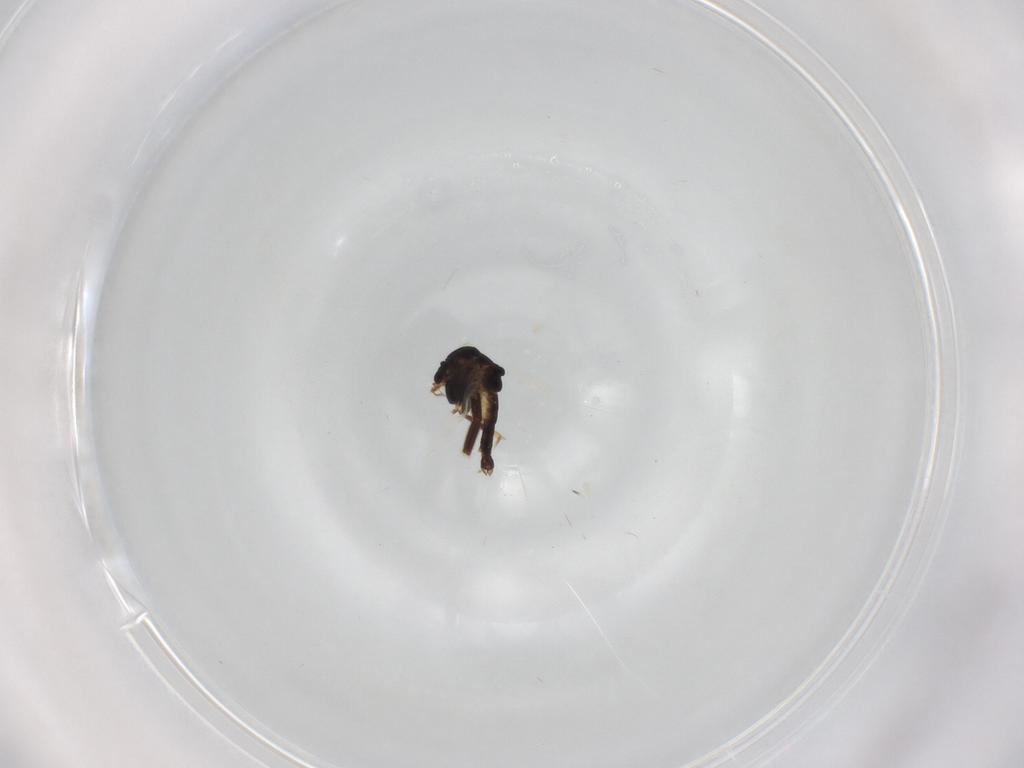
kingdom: Animalia
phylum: Arthropoda
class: Insecta
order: Diptera
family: Chironomidae
